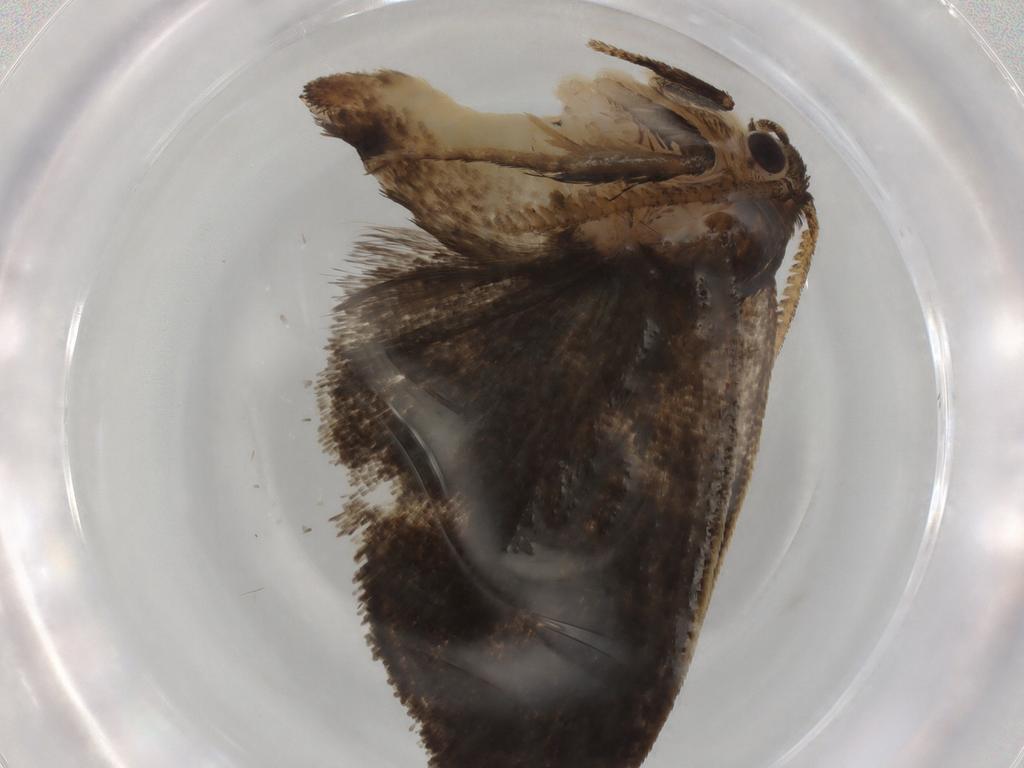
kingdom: Animalia
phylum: Arthropoda
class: Insecta
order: Lepidoptera
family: Limacodidae
